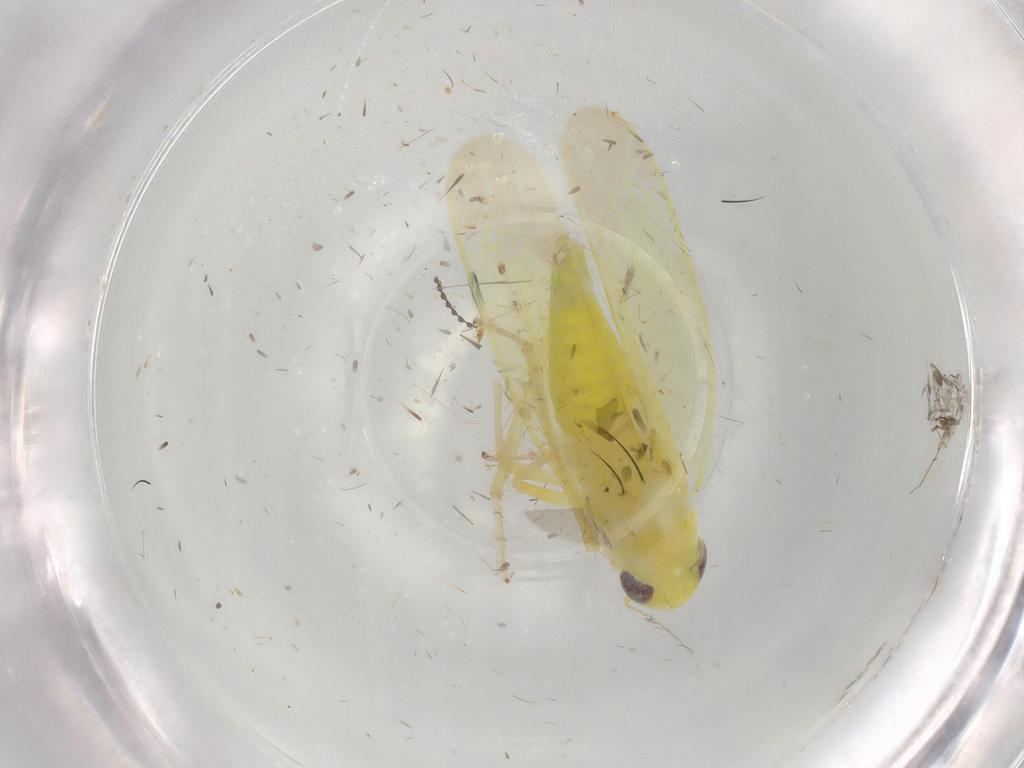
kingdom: Animalia
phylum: Arthropoda
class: Insecta
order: Hemiptera
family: Cicadellidae
